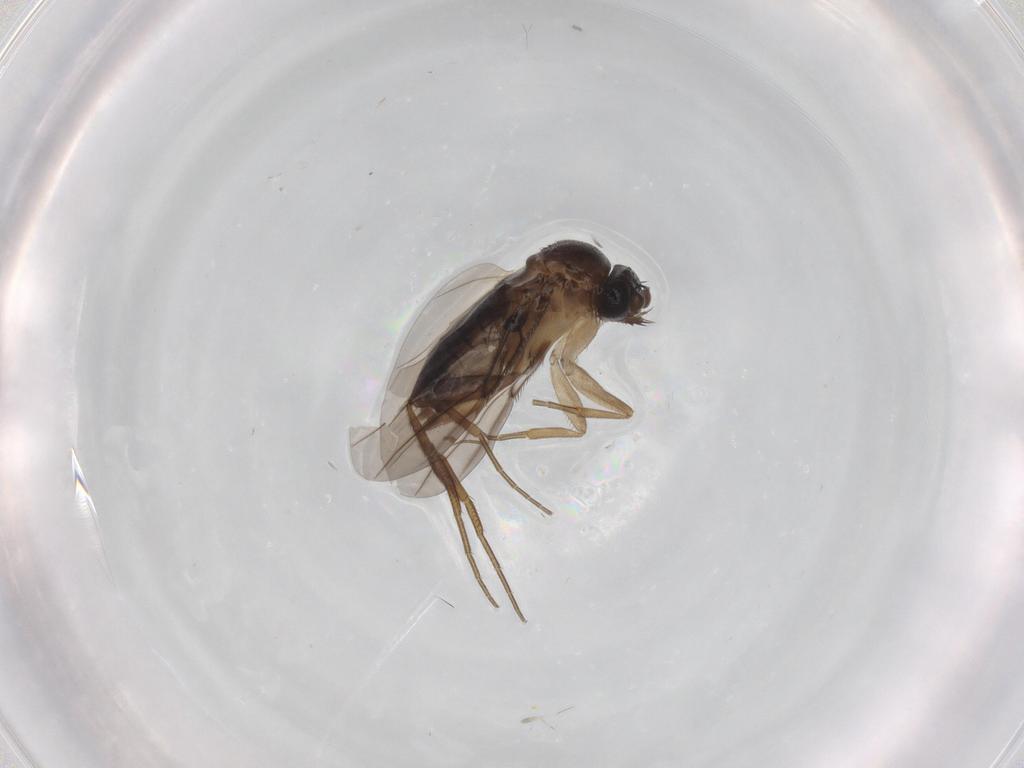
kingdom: Animalia
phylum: Arthropoda
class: Insecta
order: Diptera
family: Phoridae
